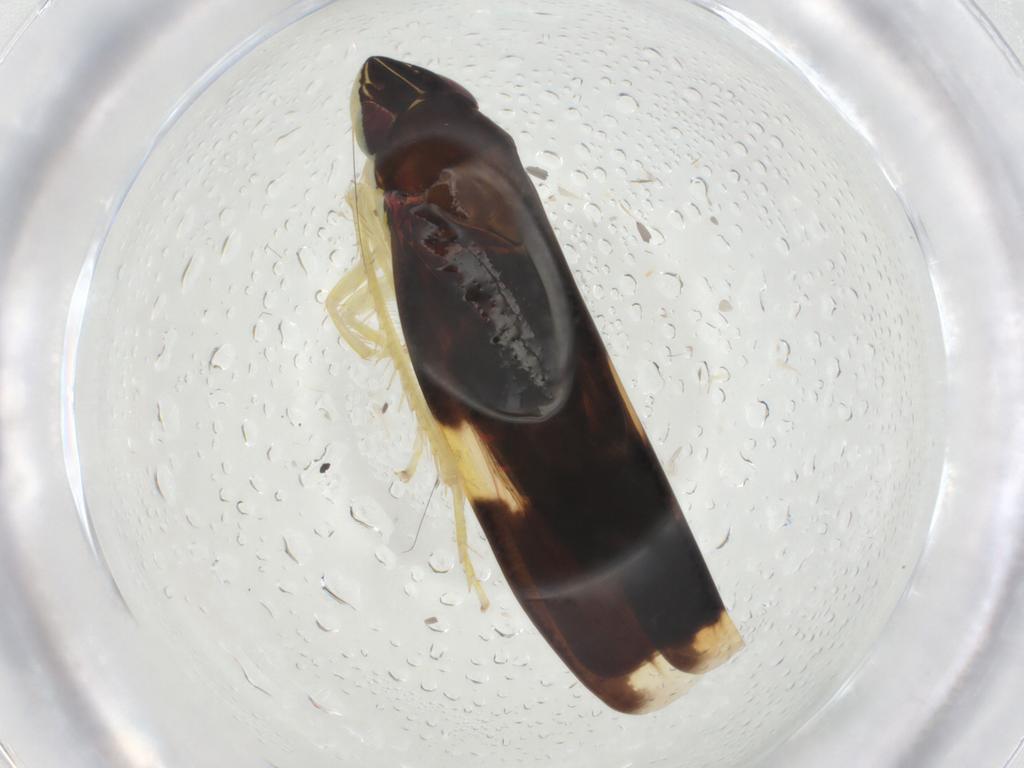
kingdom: Animalia
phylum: Arthropoda
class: Insecta
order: Hemiptera
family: Cicadellidae
